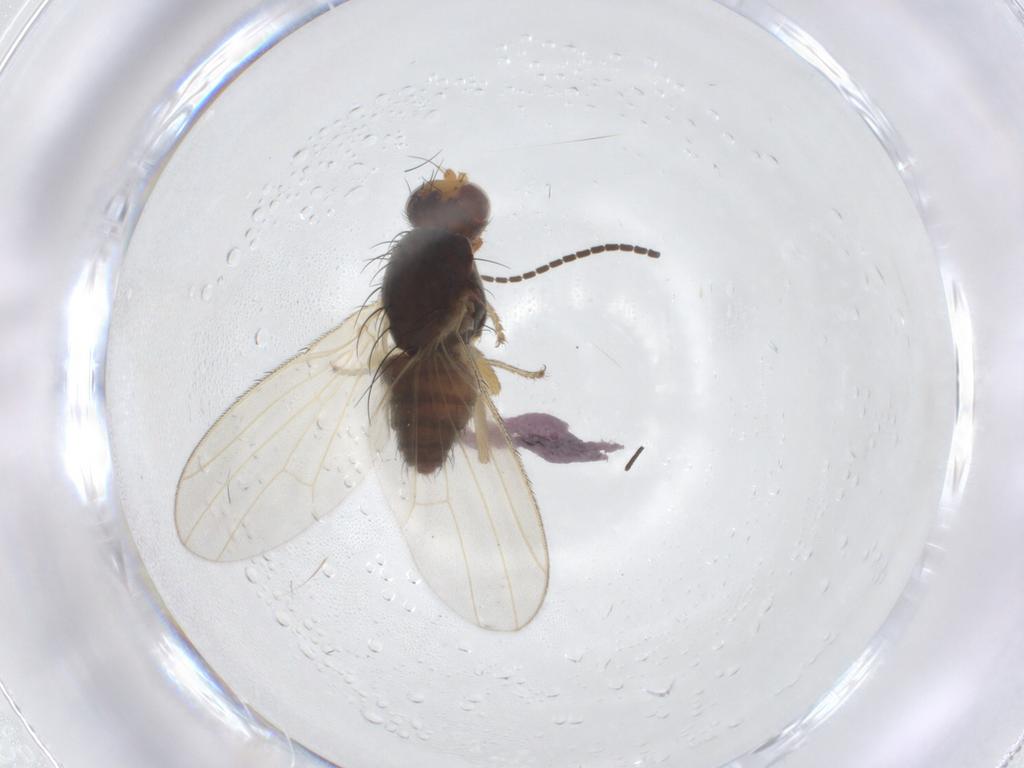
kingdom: Animalia
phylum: Arthropoda
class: Insecta
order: Diptera
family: Heleomyzidae
